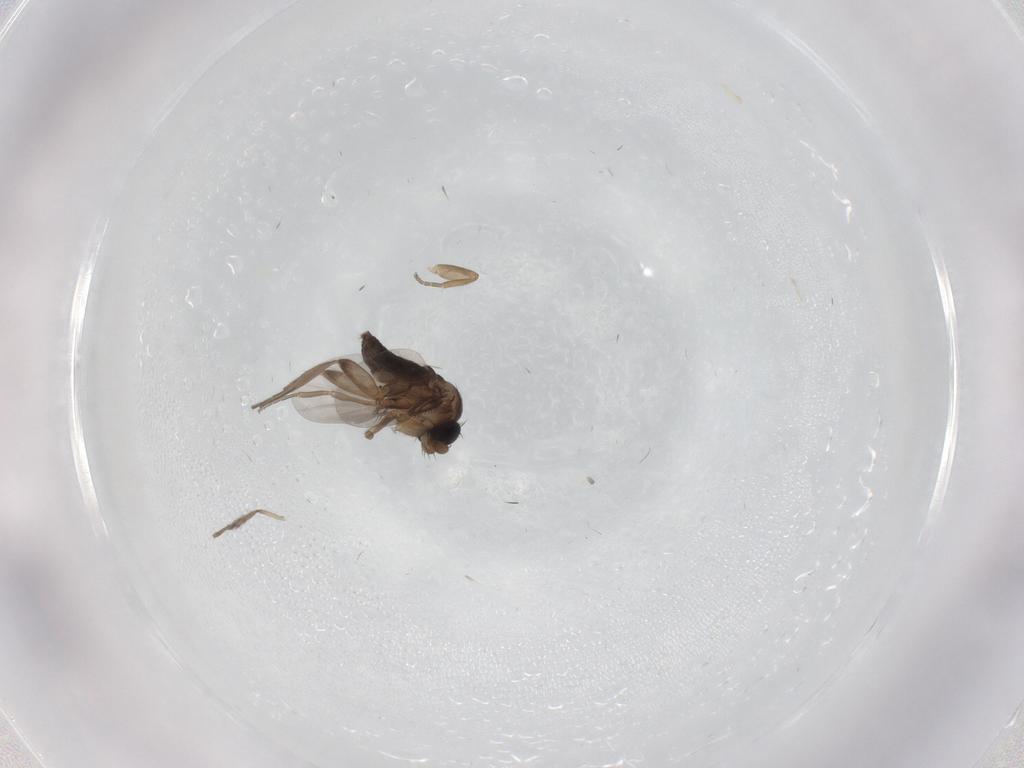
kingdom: Animalia
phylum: Arthropoda
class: Insecta
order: Diptera
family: Phoridae
